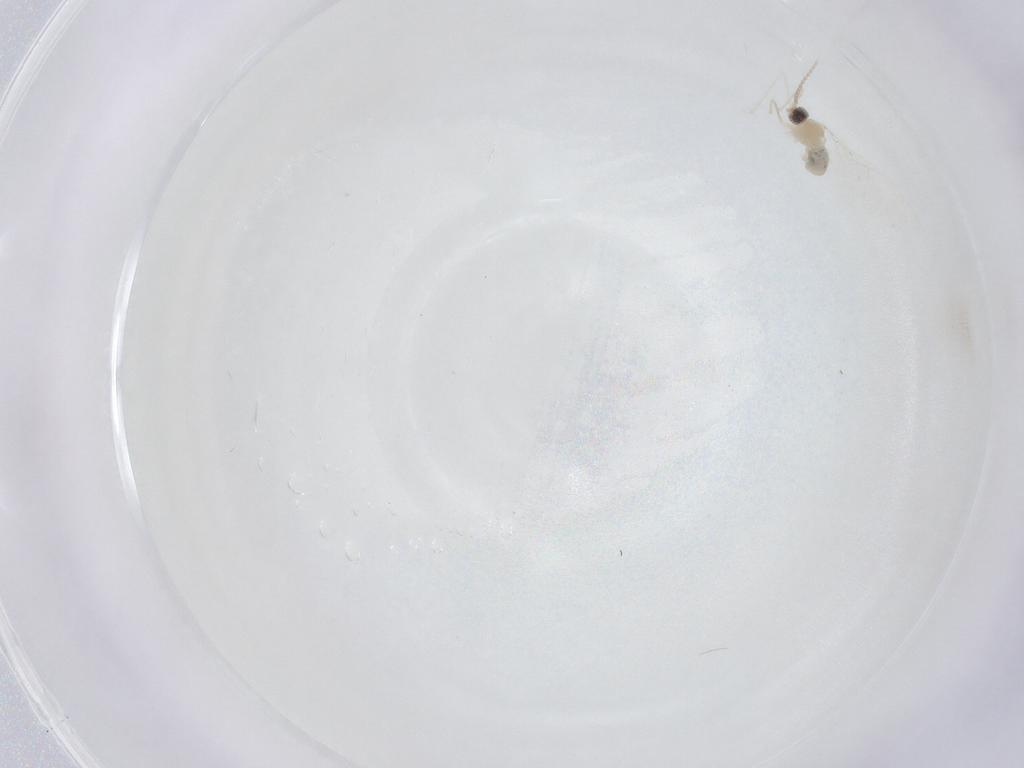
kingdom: Animalia
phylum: Arthropoda
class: Insecta
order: Diptera
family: Cecidomyiidae
